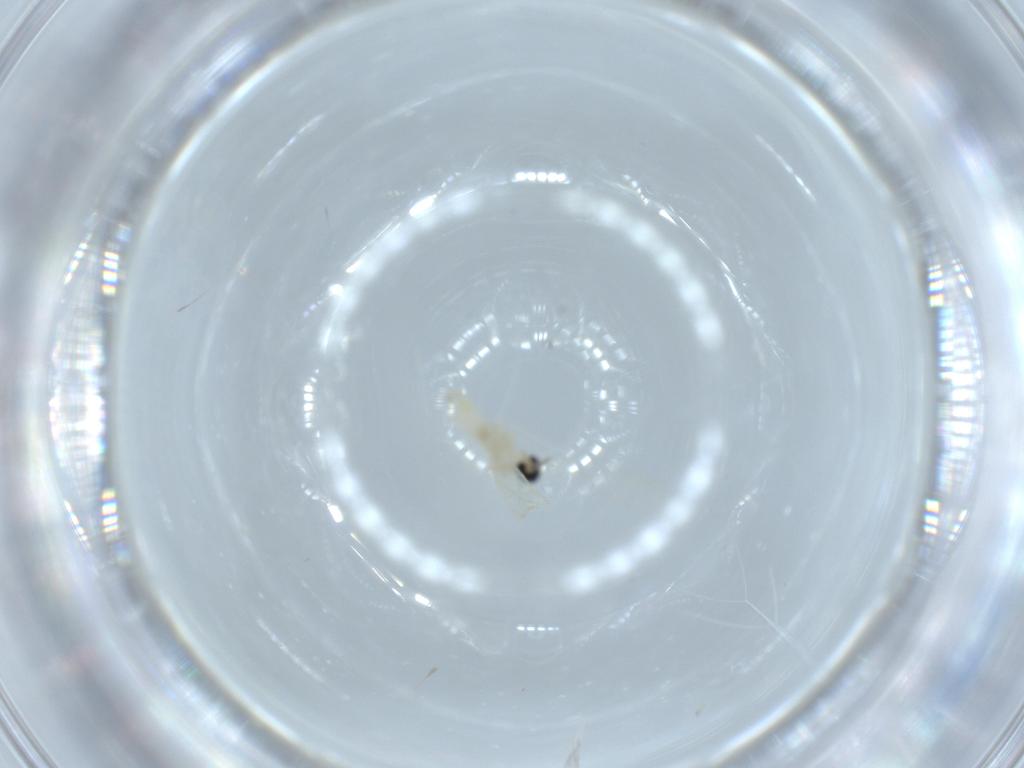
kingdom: Animalia
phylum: Arthropoda
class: Insecta
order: Diptera
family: Cecidomyiidae
